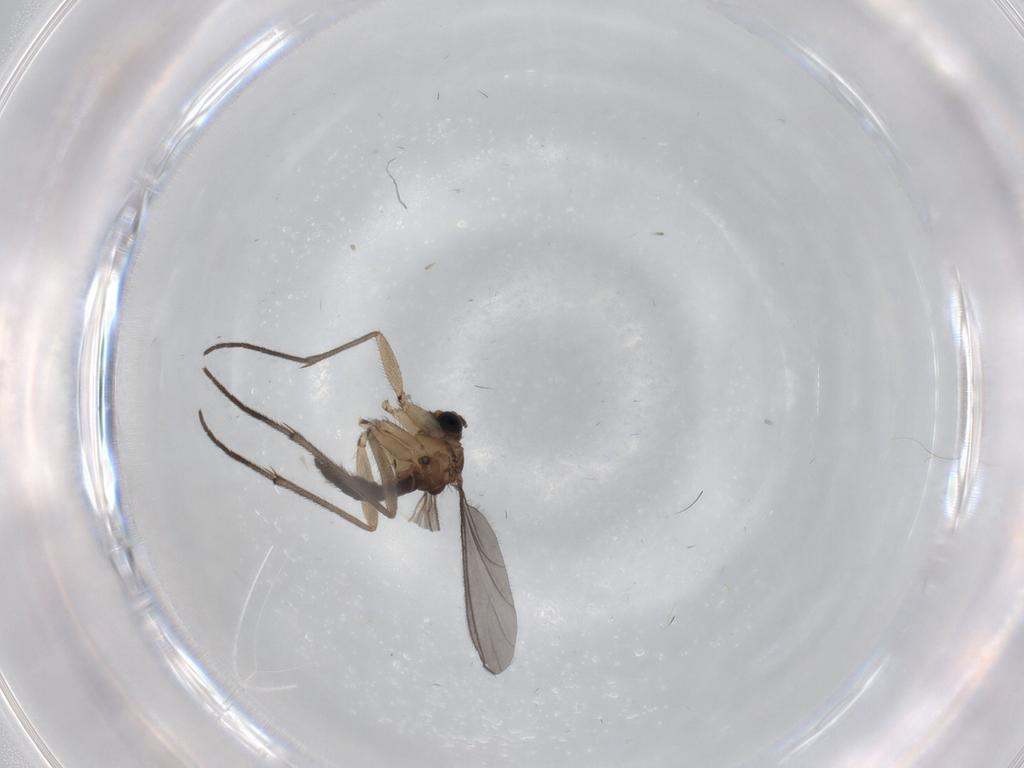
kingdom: Animalia
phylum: Arthropoda
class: Insecta
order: Diptera
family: Sciaridae
